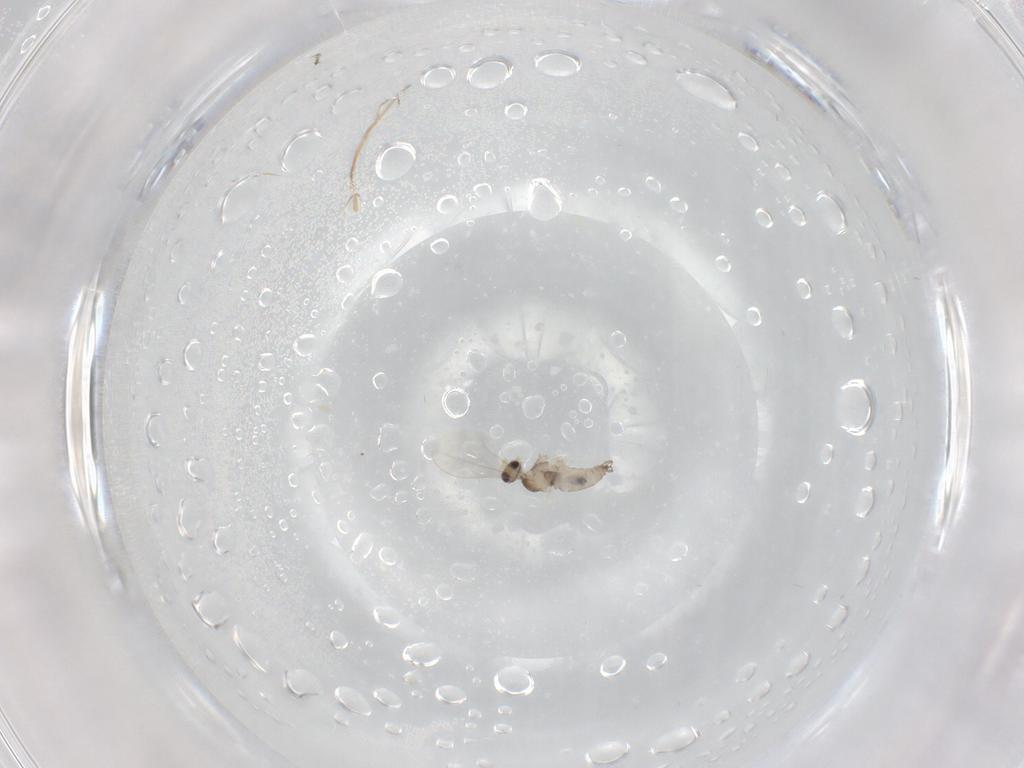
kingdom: Animalia
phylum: Arthropoda
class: Insecta
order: Diptera
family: Cecidomyiidae
